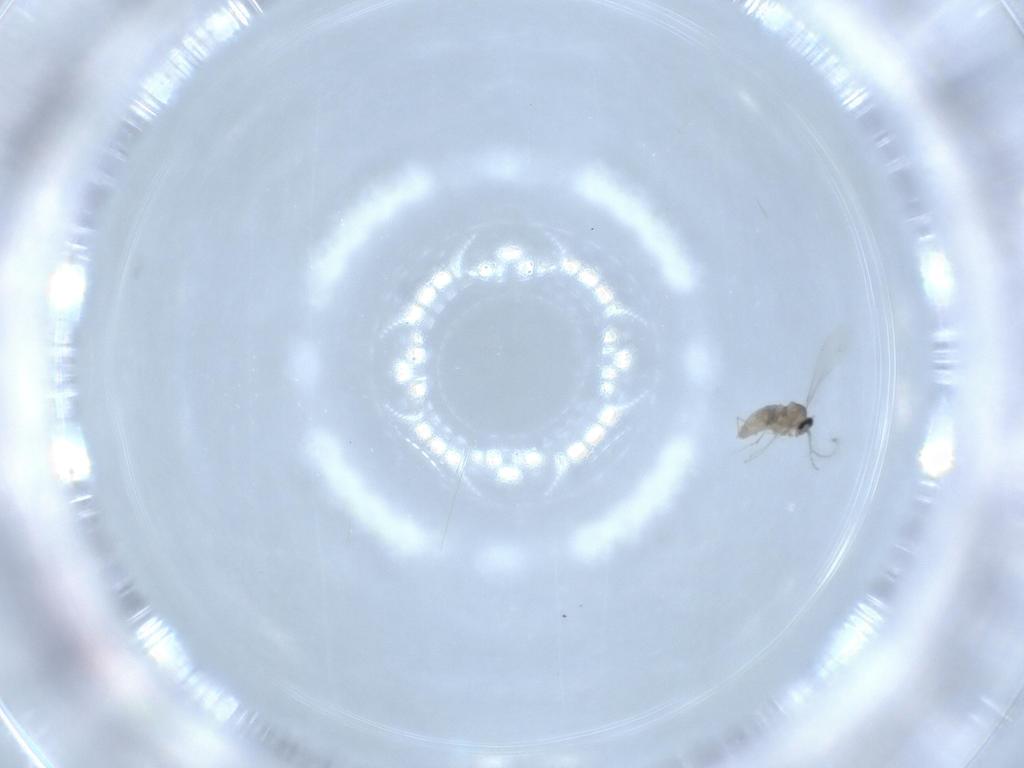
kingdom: Animalia
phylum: Arthropoda
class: Insecta
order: Diptera
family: Cecidomyiidae
